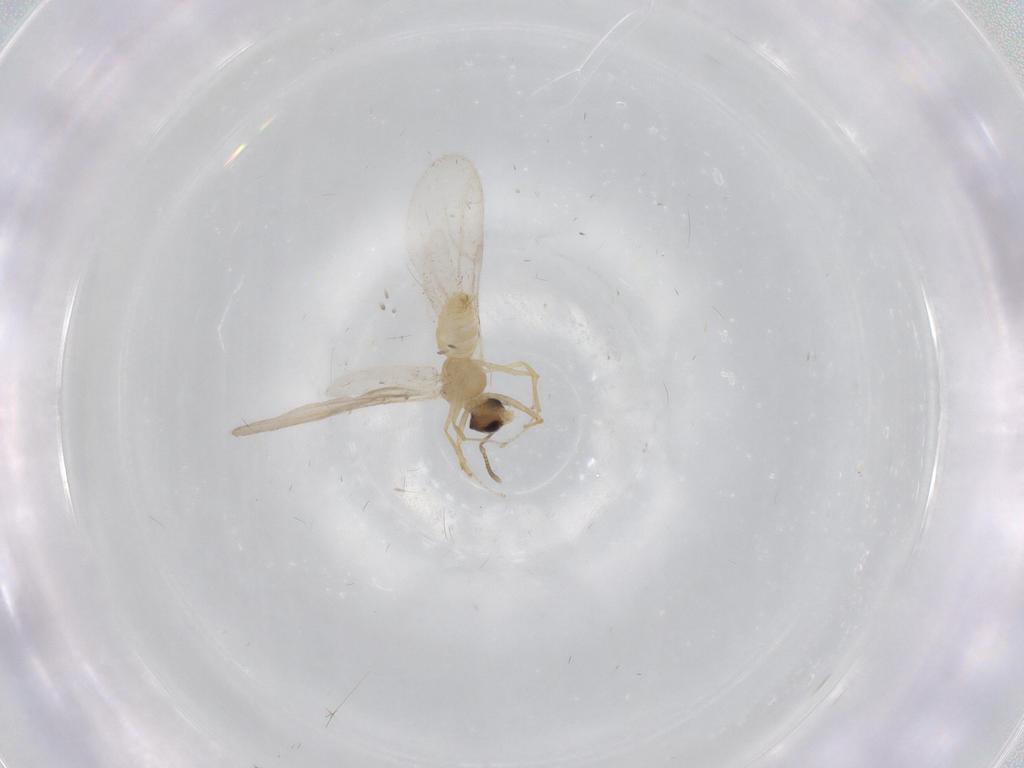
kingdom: Animalia
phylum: Arthropoda
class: Insecta
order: Hymenoptera
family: Formicidae
